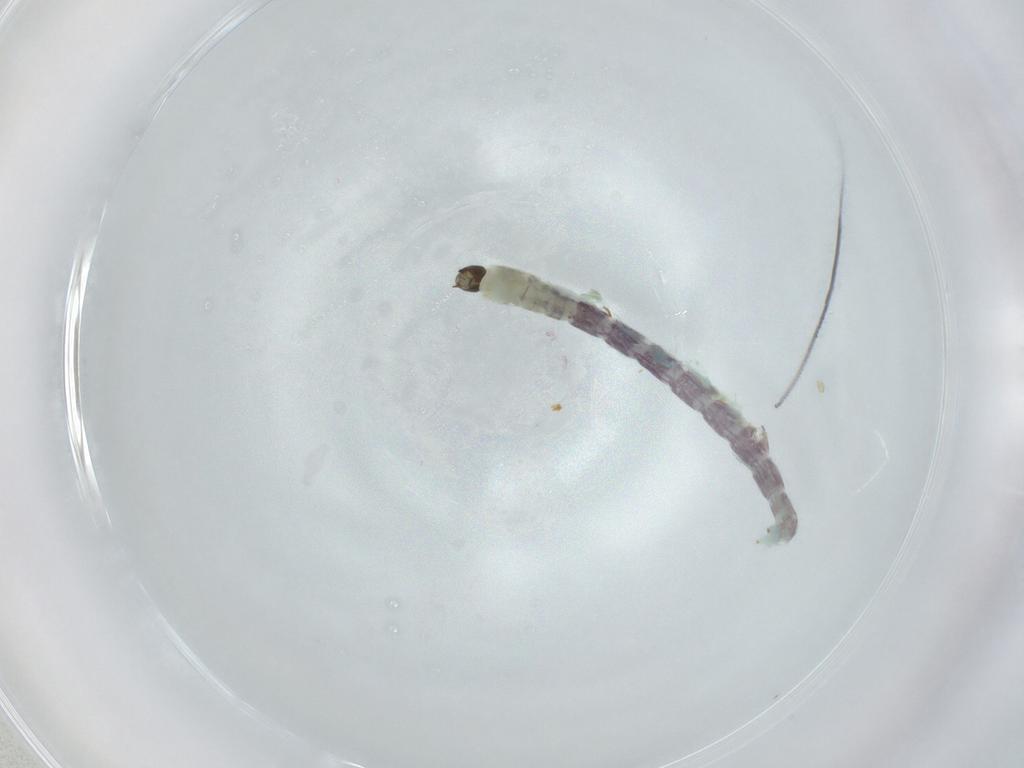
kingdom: Animalia
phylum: Arthropoda
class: Insecta
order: Diptera
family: Chironomidae
